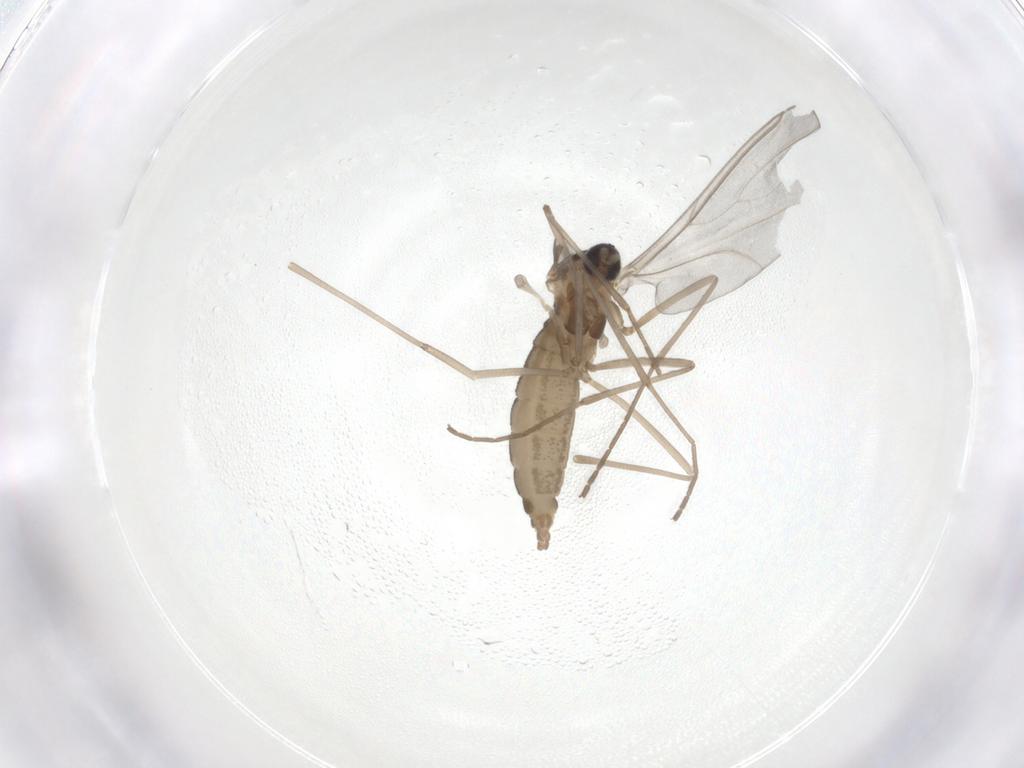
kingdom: Animalia
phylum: Arthropoda
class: Insecta
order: Diptera
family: Cecidomyiidae
